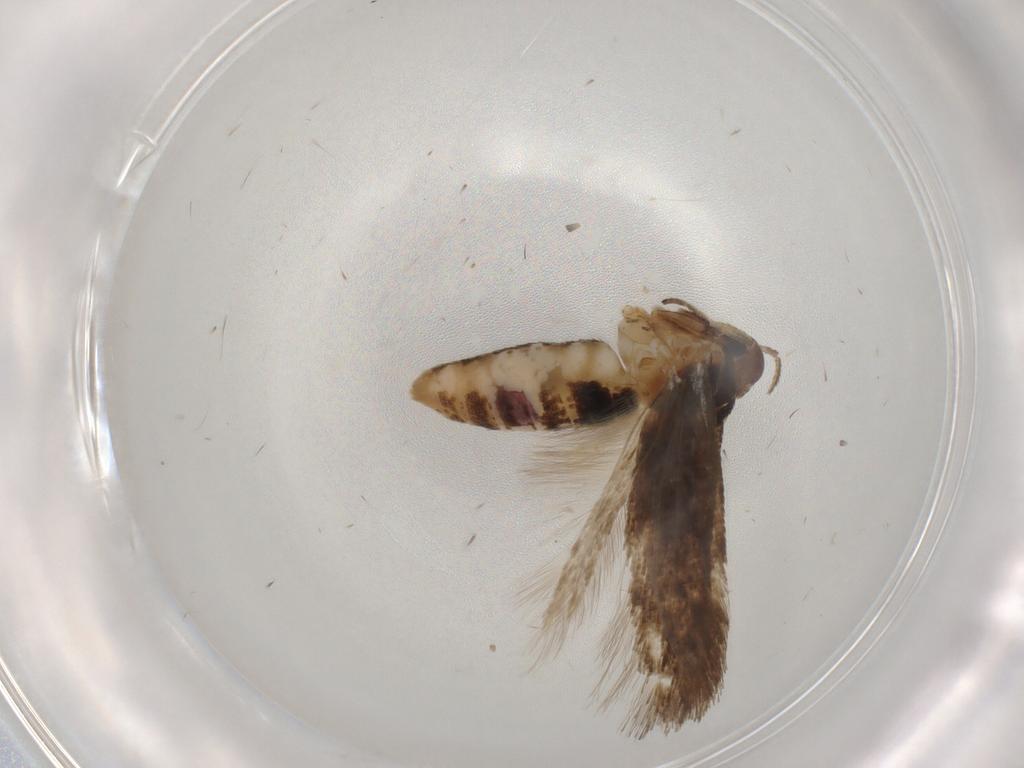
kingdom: Animalia
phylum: Arthropoda
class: Insecta
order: Lepidoptera
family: Cosmopterigidae
